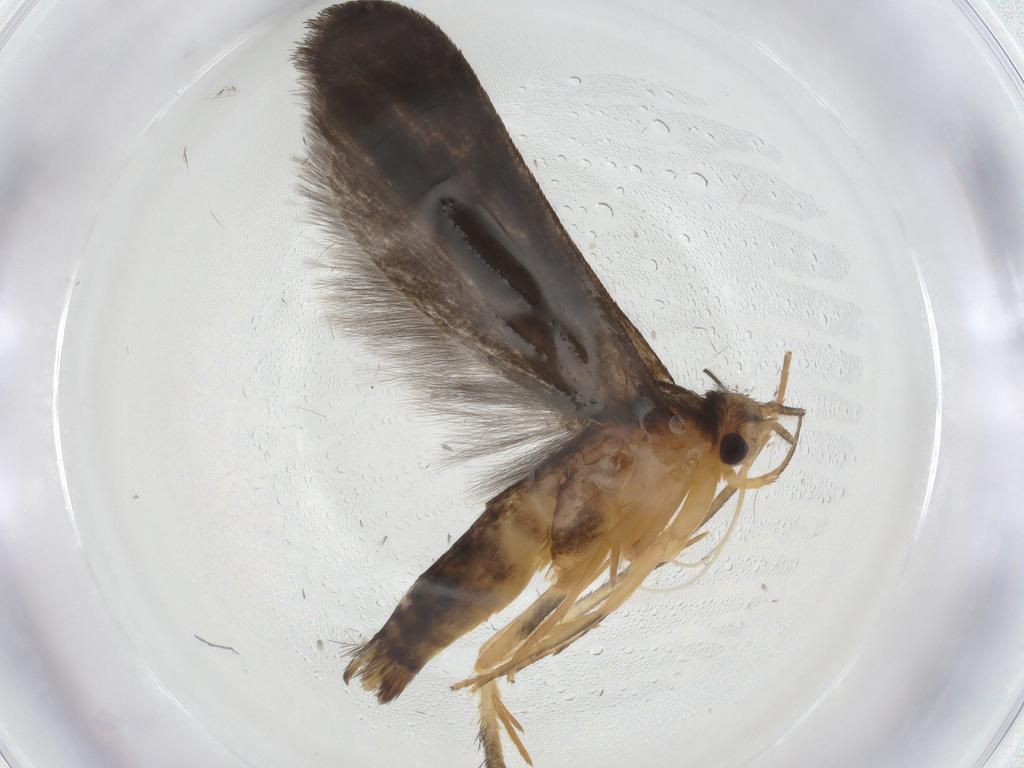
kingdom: Animalia
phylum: Arthropoda
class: Insecta
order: Lepidoptera
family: Yponomeutidae
